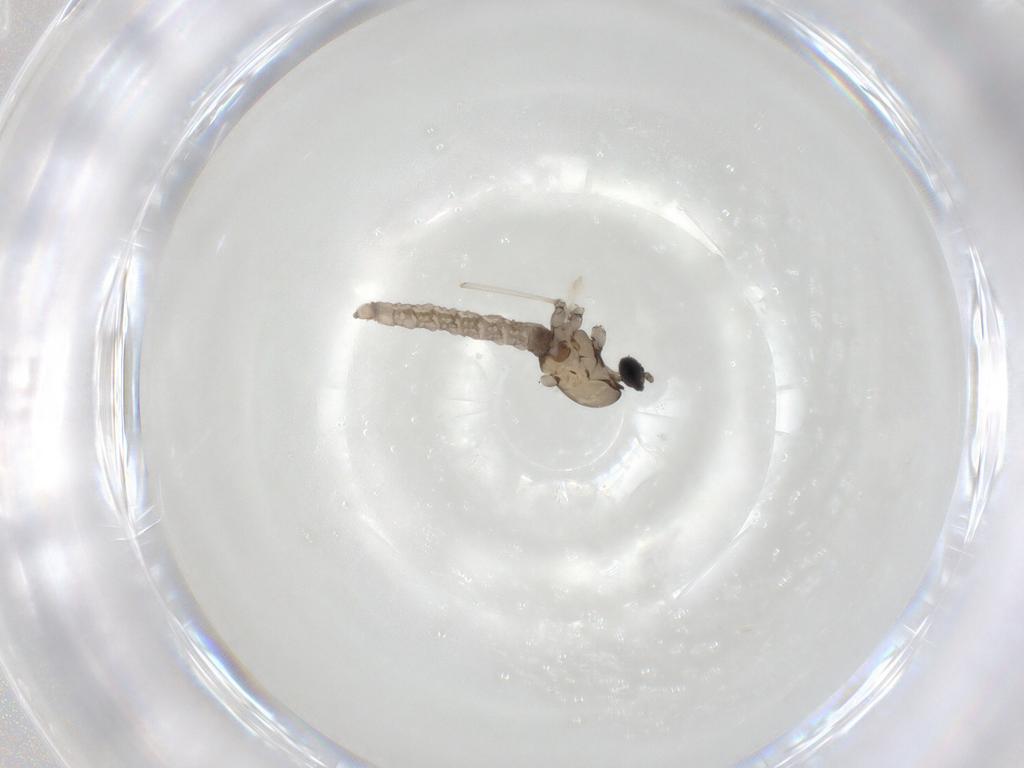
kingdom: Animalia
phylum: Arthropoda
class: Insecta
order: Diptera
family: Cecidomyiidae
